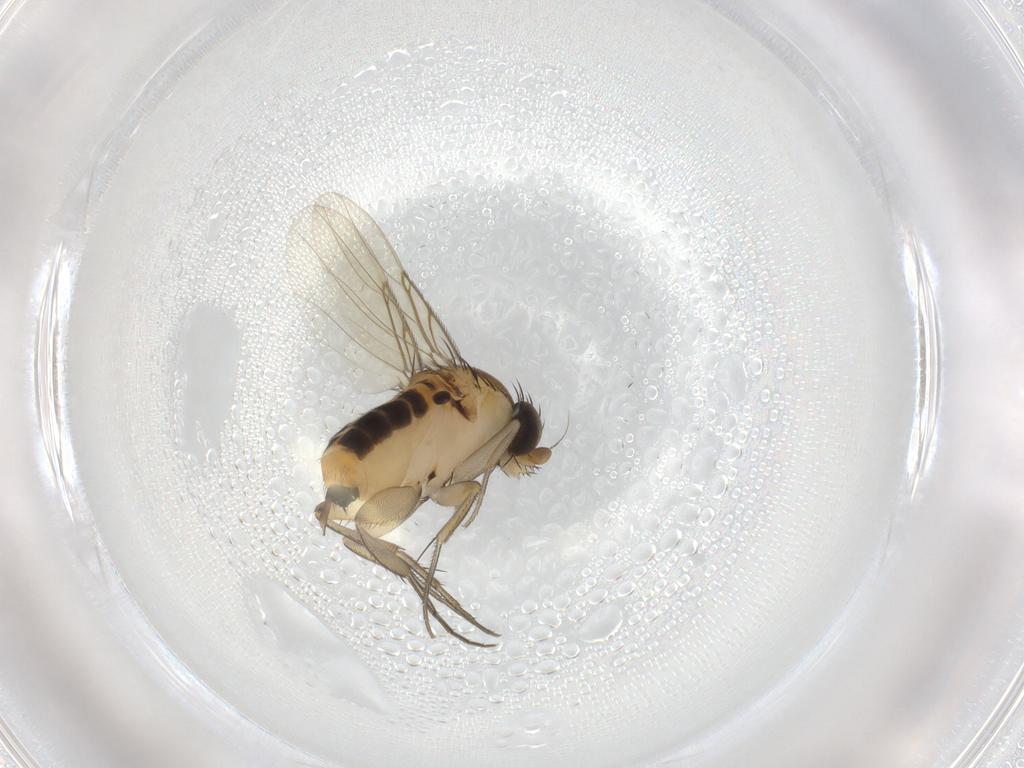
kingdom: Animalia
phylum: Arthropoda
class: Insecta
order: Diptera
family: Phoridae
